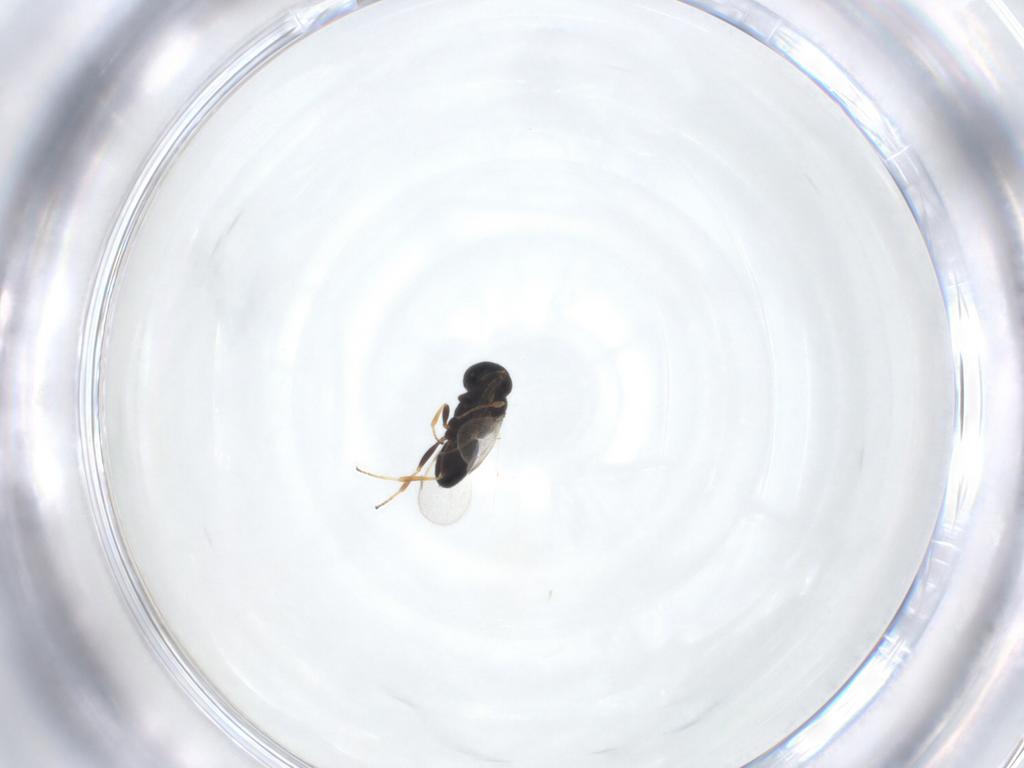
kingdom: Animalia
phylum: Arthropoda
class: Insecta
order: Hymenoptera
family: Scelionidae
